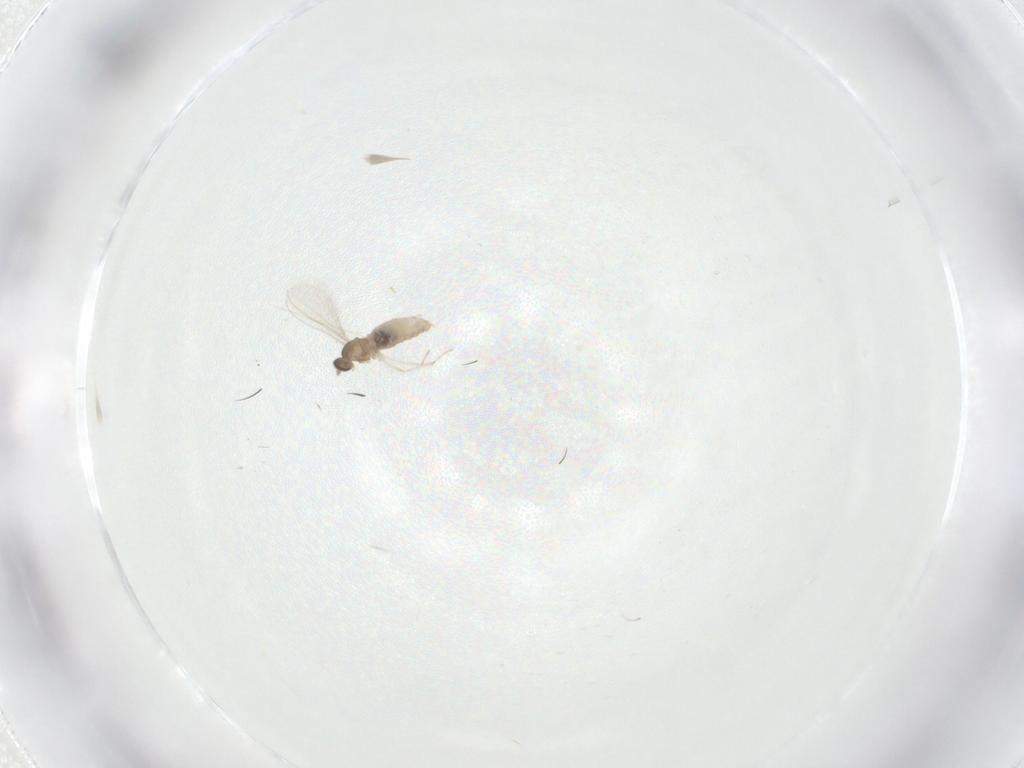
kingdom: Animalia
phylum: Arthropoda
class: Insecta
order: Diptera
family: Cecidomyiidae
